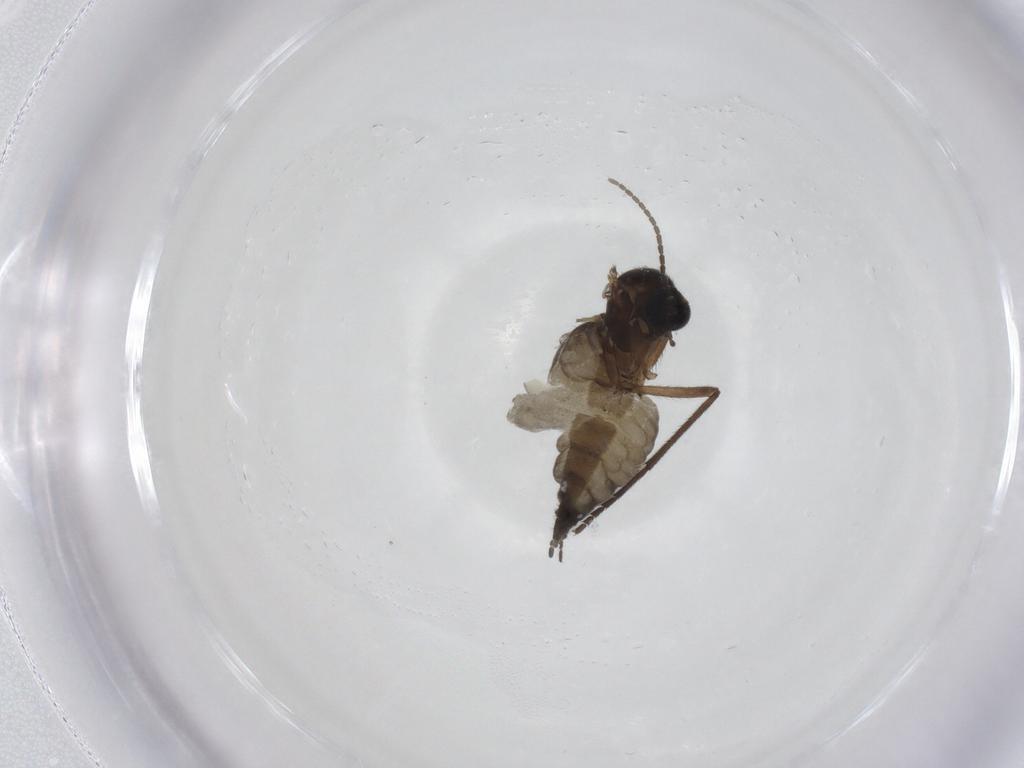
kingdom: Animalia
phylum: Arthropoda
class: Insecta
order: Diptera
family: Sciaridae
